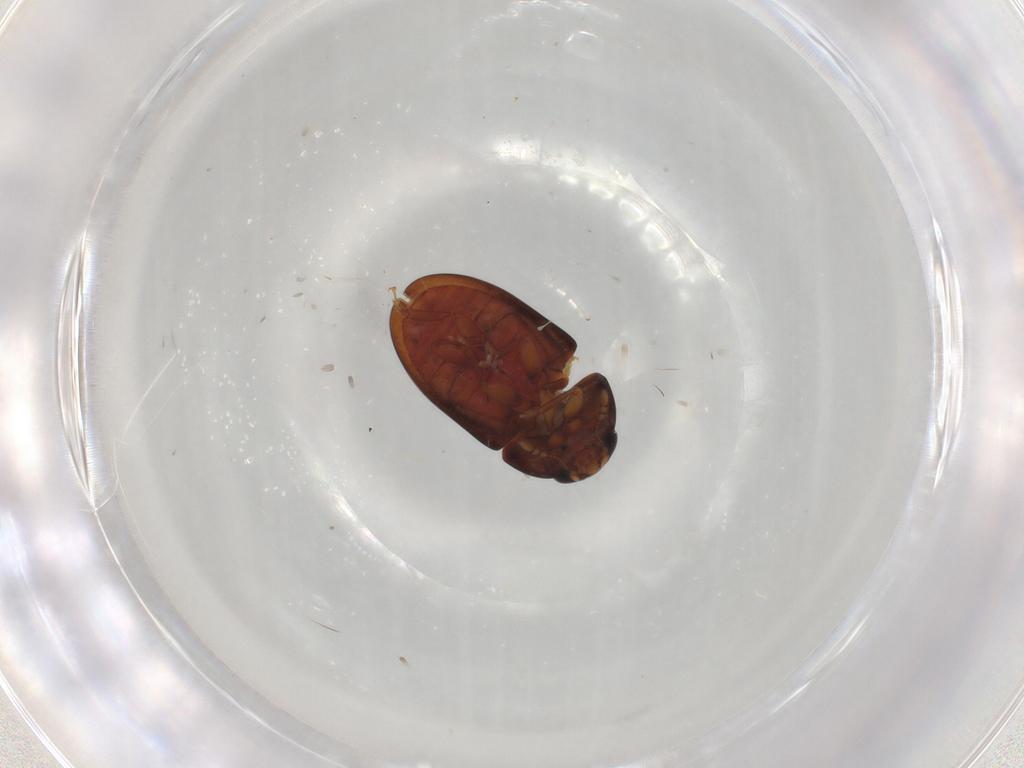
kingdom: Animalia
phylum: Arthropoda
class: Insecta
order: Coleoptera
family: Phalacridae
